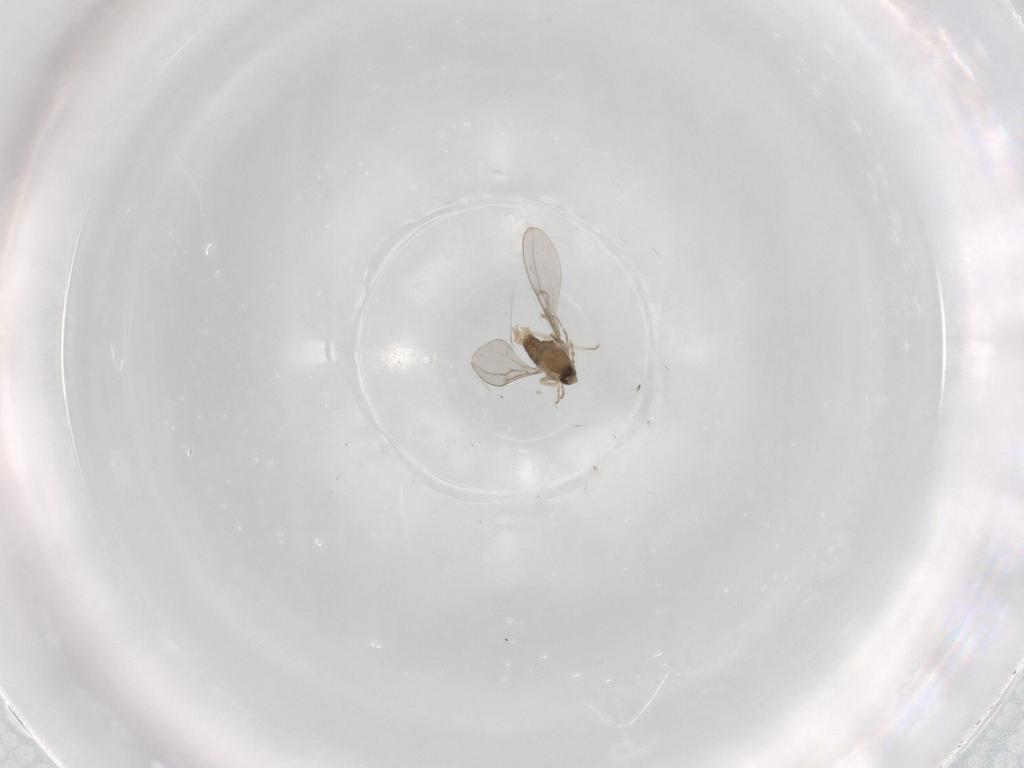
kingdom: Animalia
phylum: Arthropoda
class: Insecta
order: Diptera
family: Cecidomyiidae
